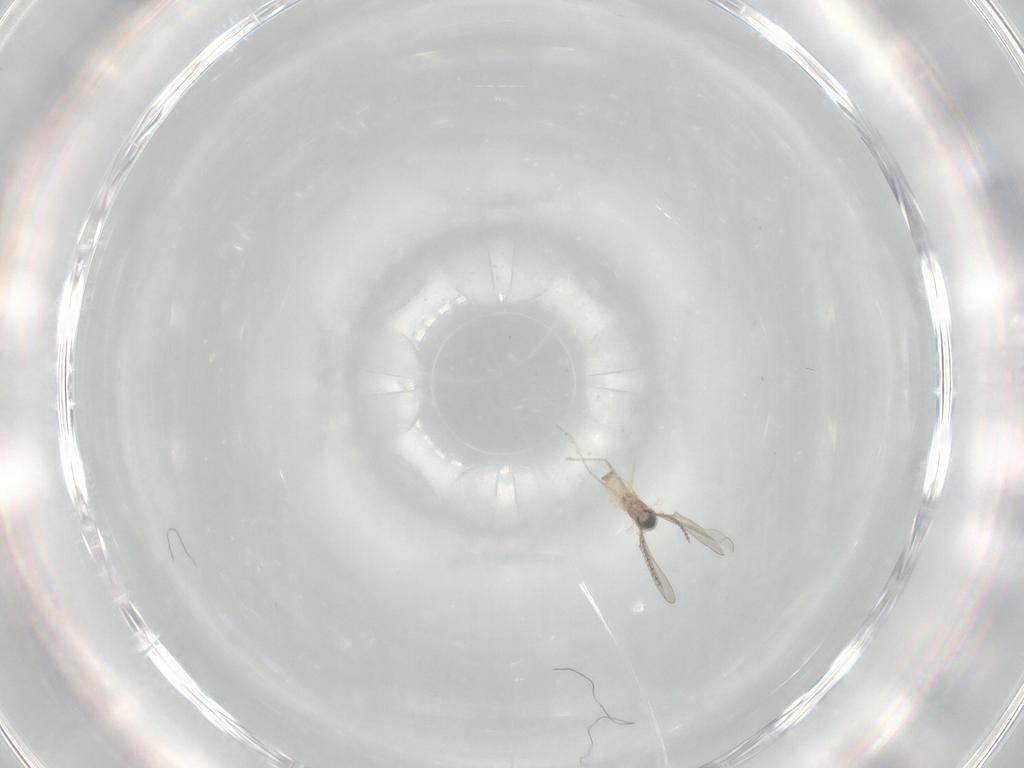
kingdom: Animalia
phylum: Arthropoda
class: Insecta
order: Diptera
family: Cecidomyiidae
